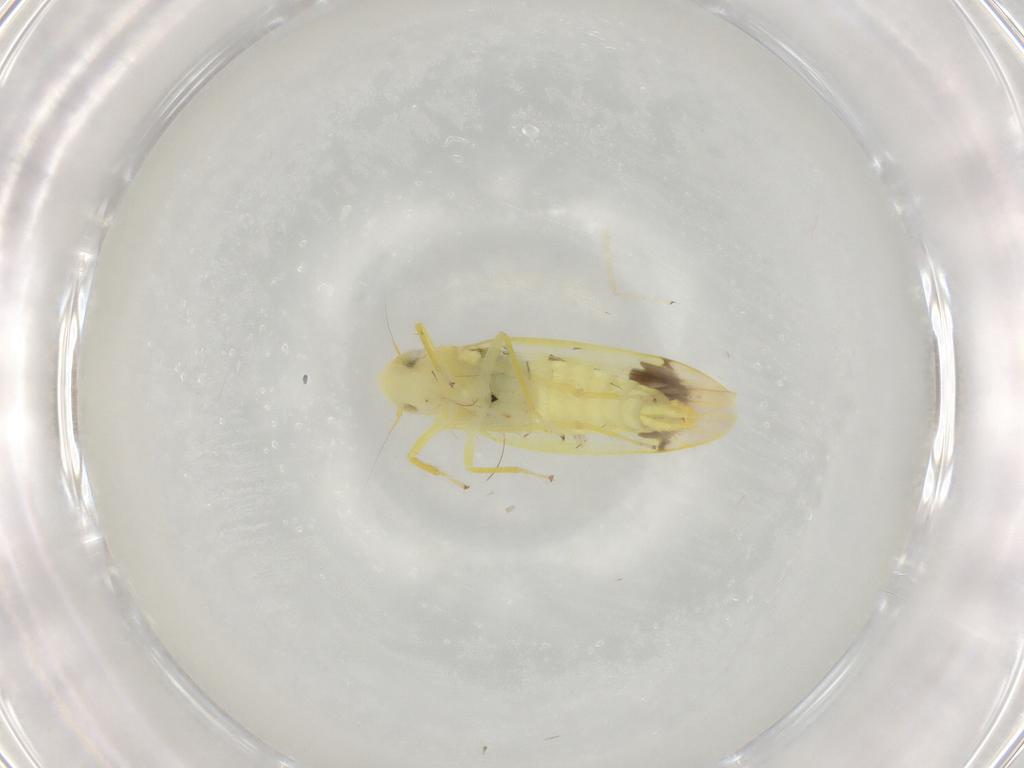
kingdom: Animalia
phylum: Arthropoda
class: Insecta
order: Hemiptera
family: Cicadellidae
